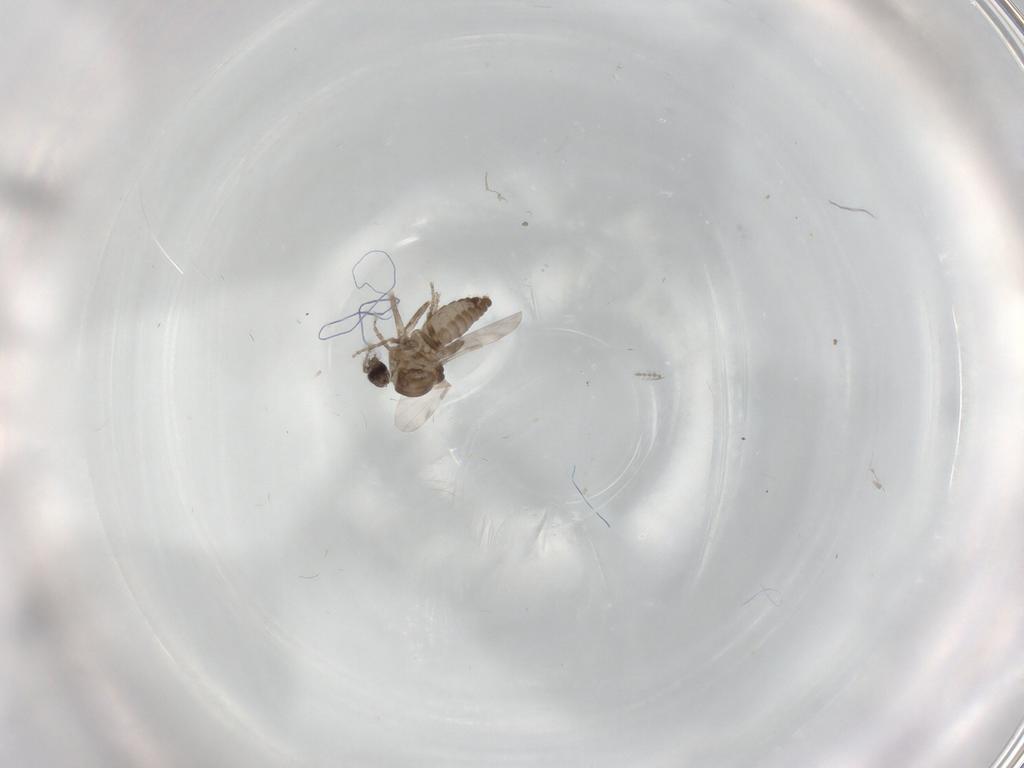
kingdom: Animalia
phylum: Arthropoda
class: Insecta
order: Diptera
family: Ceratopogonidae
